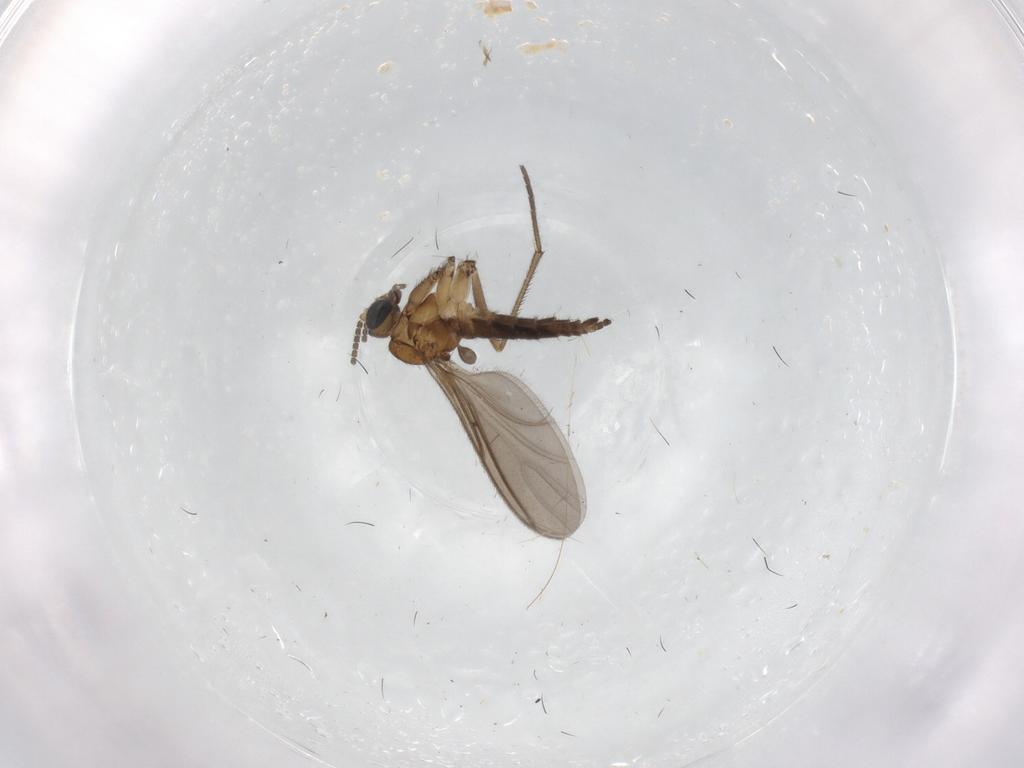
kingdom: Animalia
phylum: Arthropoda
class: Insecta
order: Diptera
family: Sciaridae
